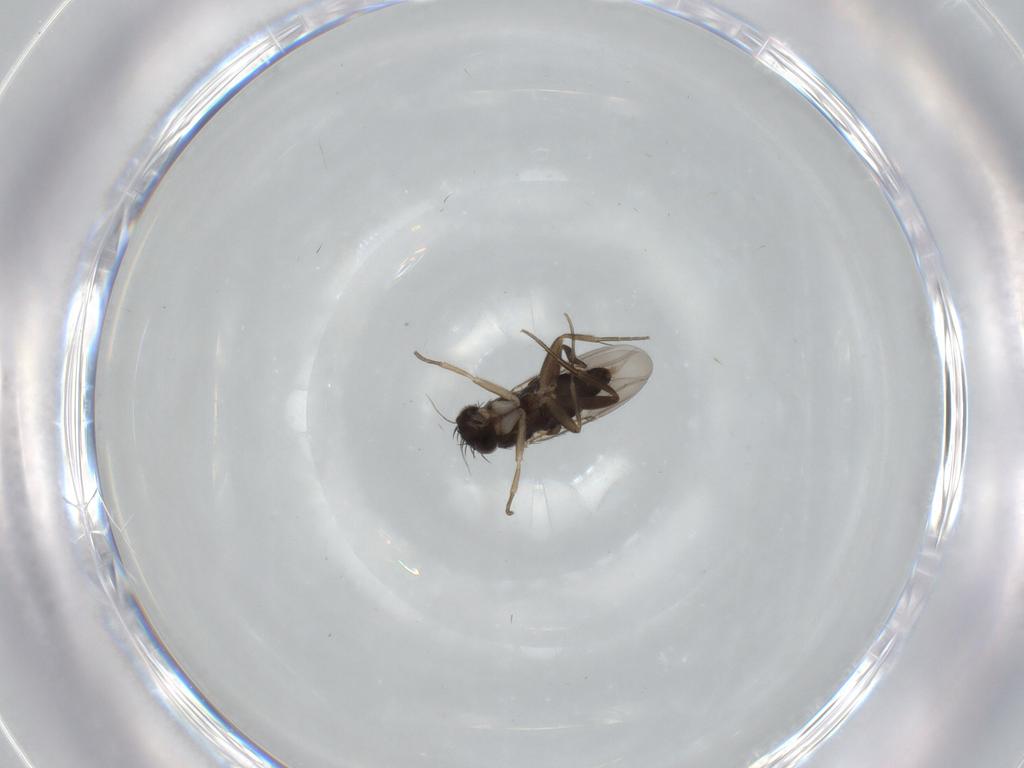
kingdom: Animalia
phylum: Arthropoda
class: Insecta
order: Diptera
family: Phoridae
